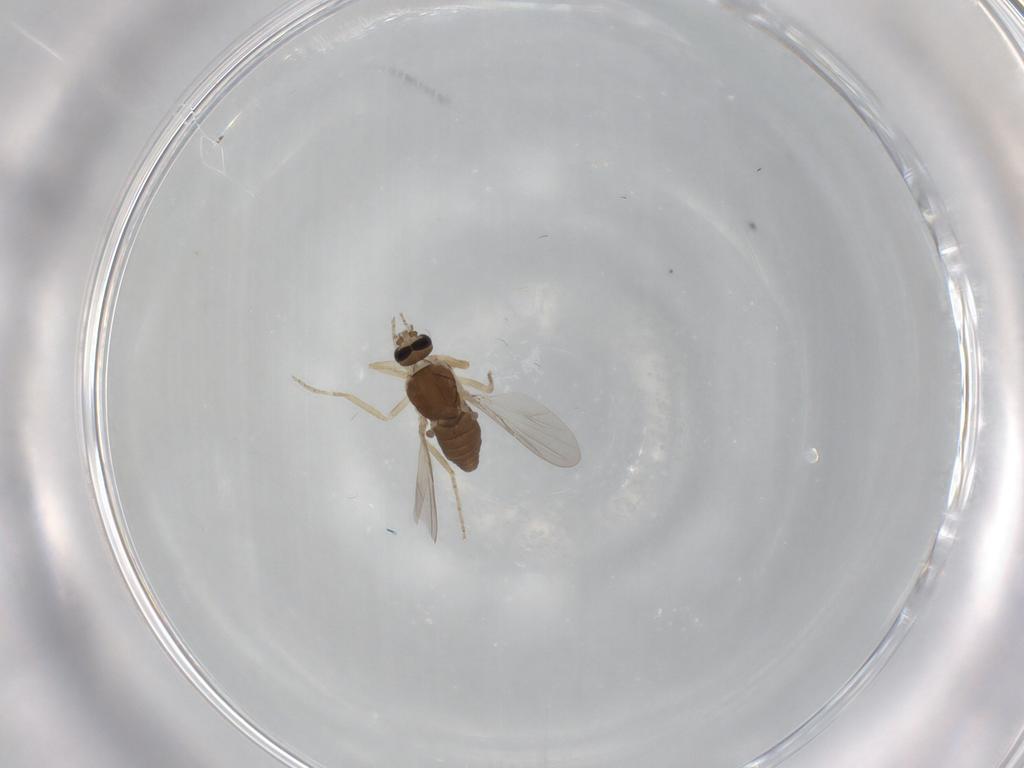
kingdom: Animalia
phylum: Arthropoda
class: Insecta
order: Diptera
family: Ceratopogonidae
